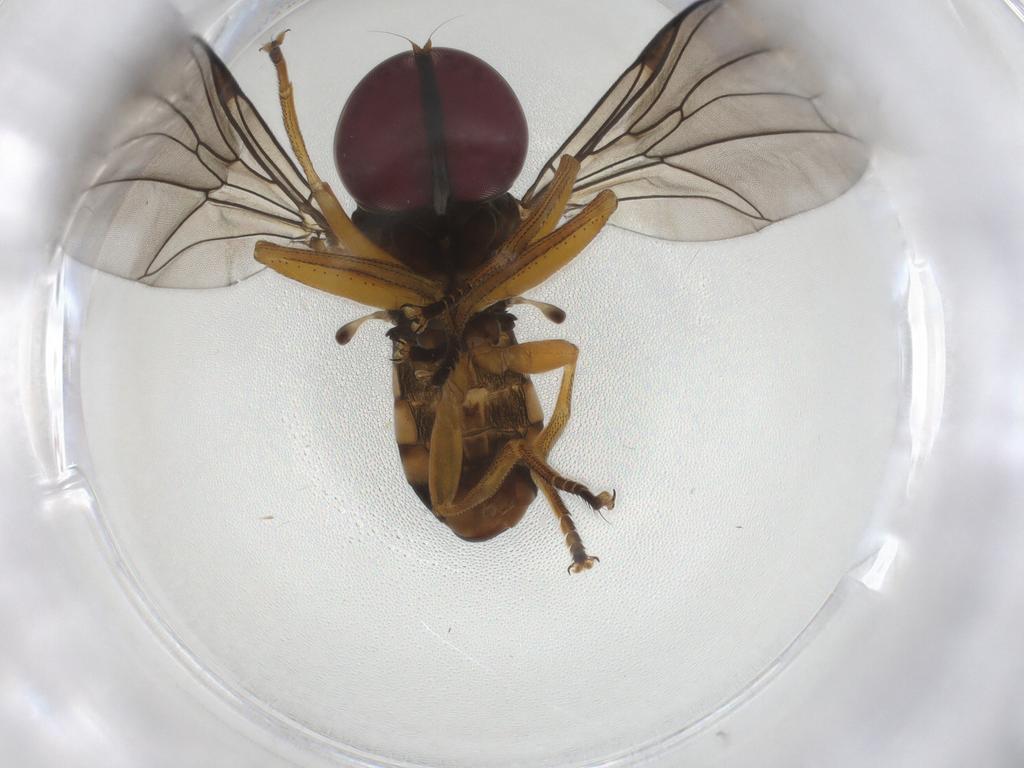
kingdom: Animalia
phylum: Arthropoda
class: Insecta
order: Diptera
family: Pipunculidae
